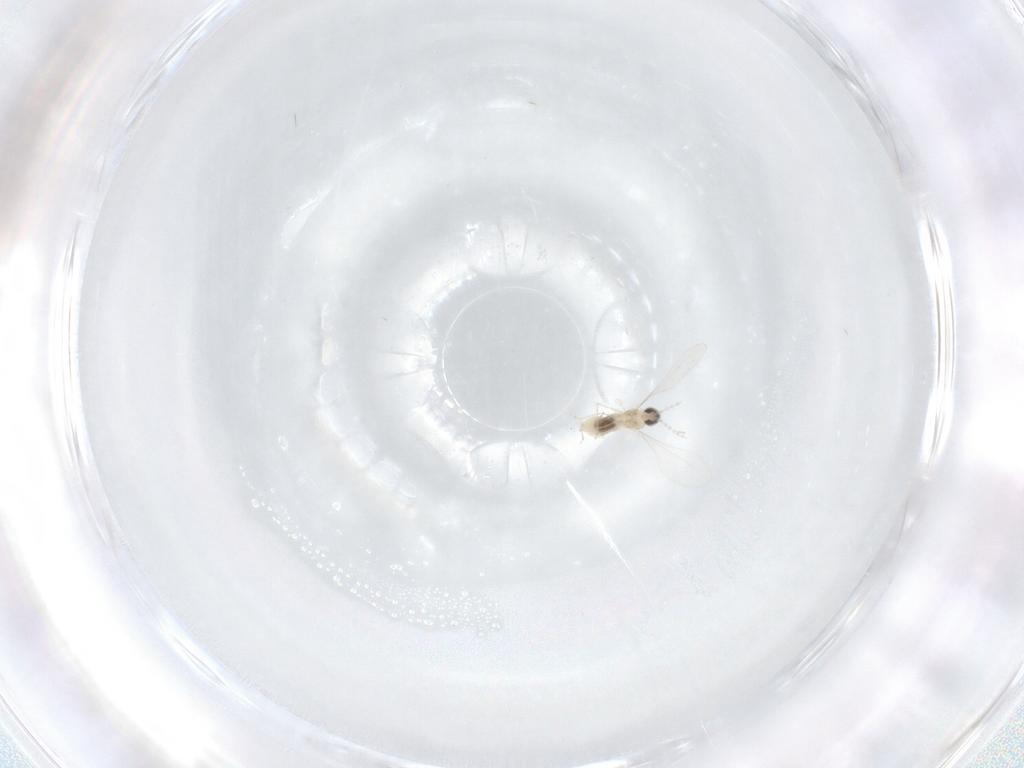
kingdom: Animalia
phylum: Arthropoda
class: Insecta
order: Diptera
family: Cecidomyiidae
